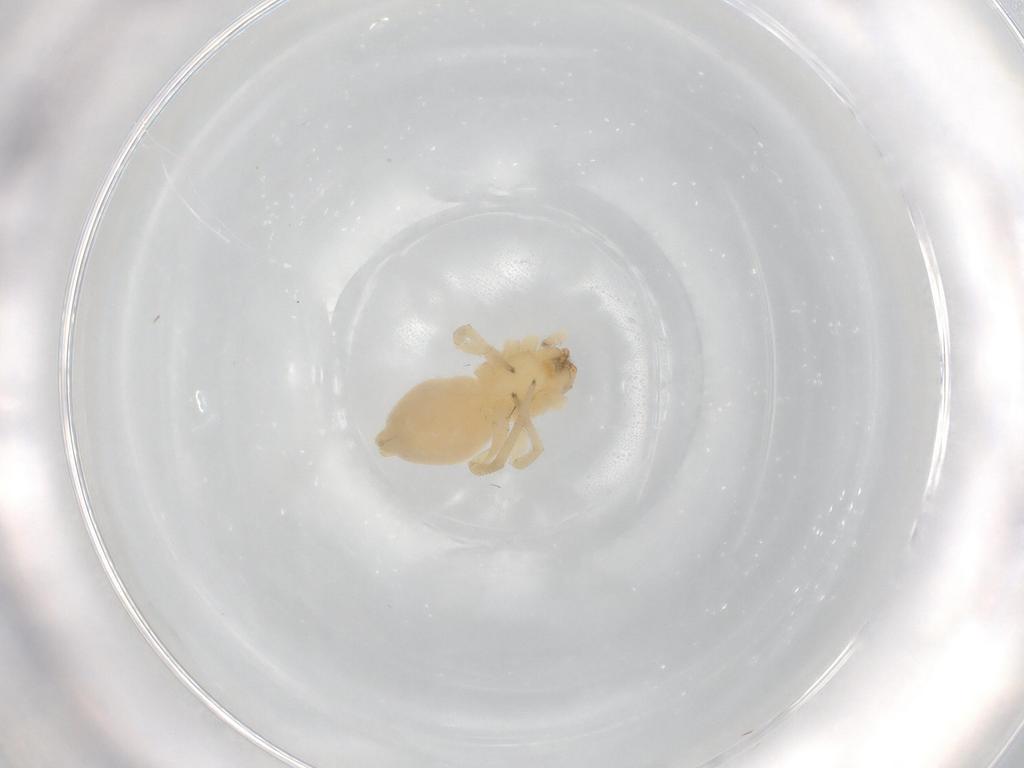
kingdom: Animalia
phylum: Arthropoda
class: Arachnida
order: Araneae
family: Cheiracanthiidae
